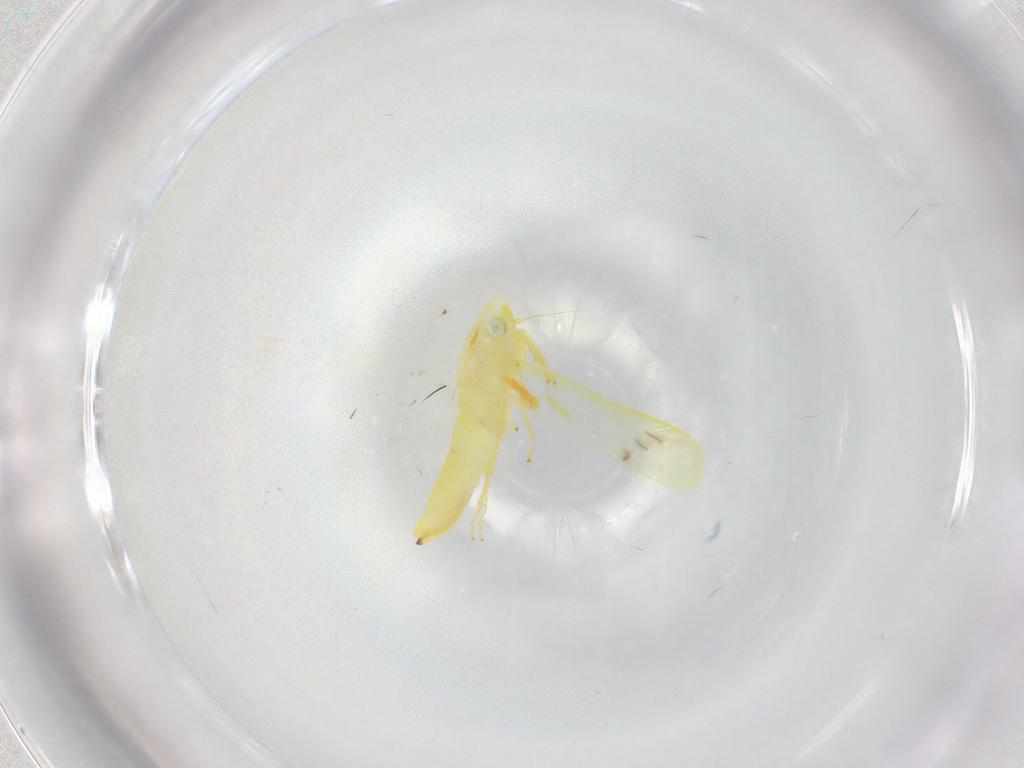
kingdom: Animalia
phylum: Arthropoda
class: Insecta
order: Hemiptera
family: Cicadellidae
